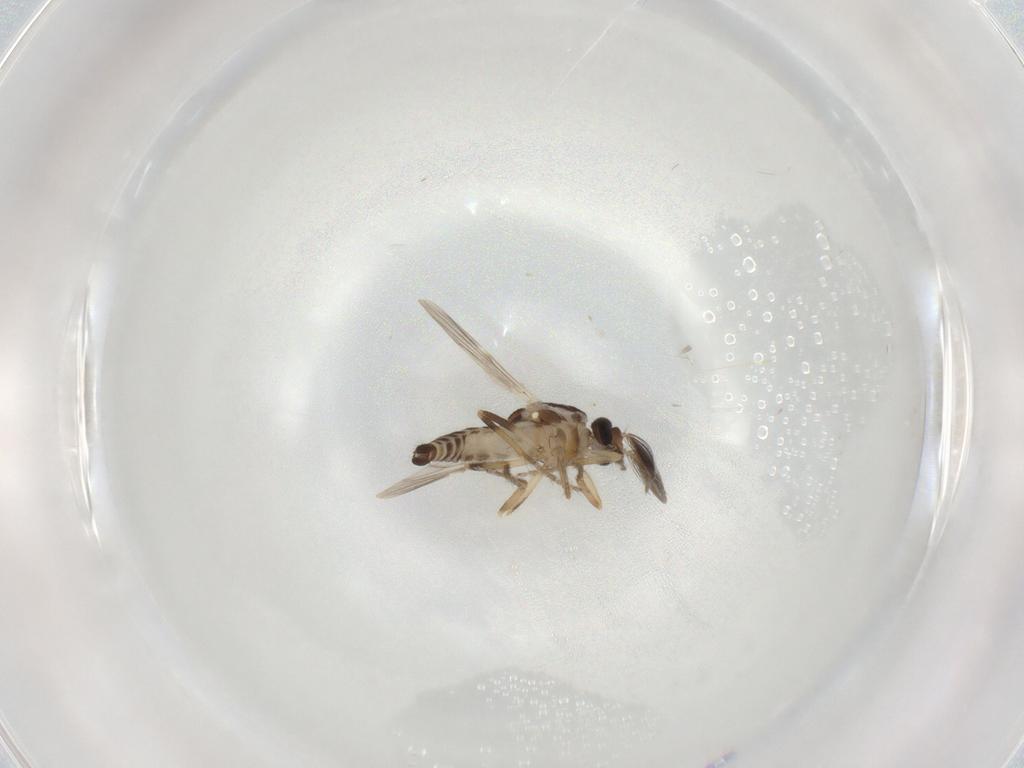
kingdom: Animalia
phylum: Arthropoda
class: Insecta
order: Diptera
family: Ceratopogonidae
